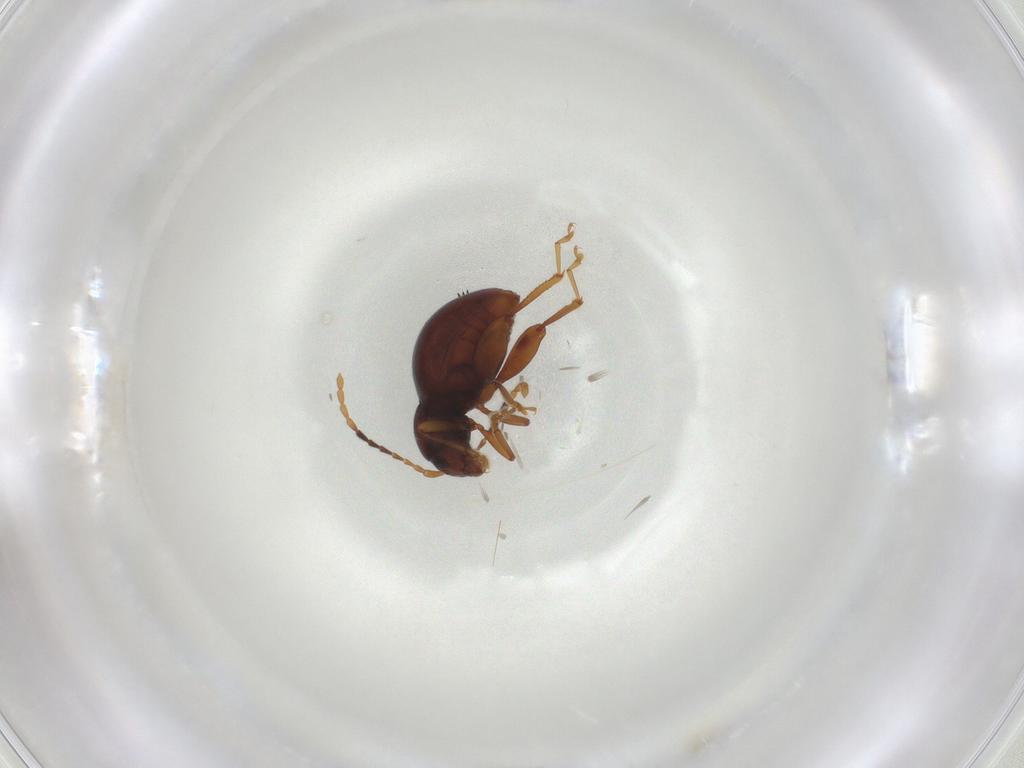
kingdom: Animalia
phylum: Arthropoda
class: Insecta
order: Coleoptera
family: Chrysomelidae
